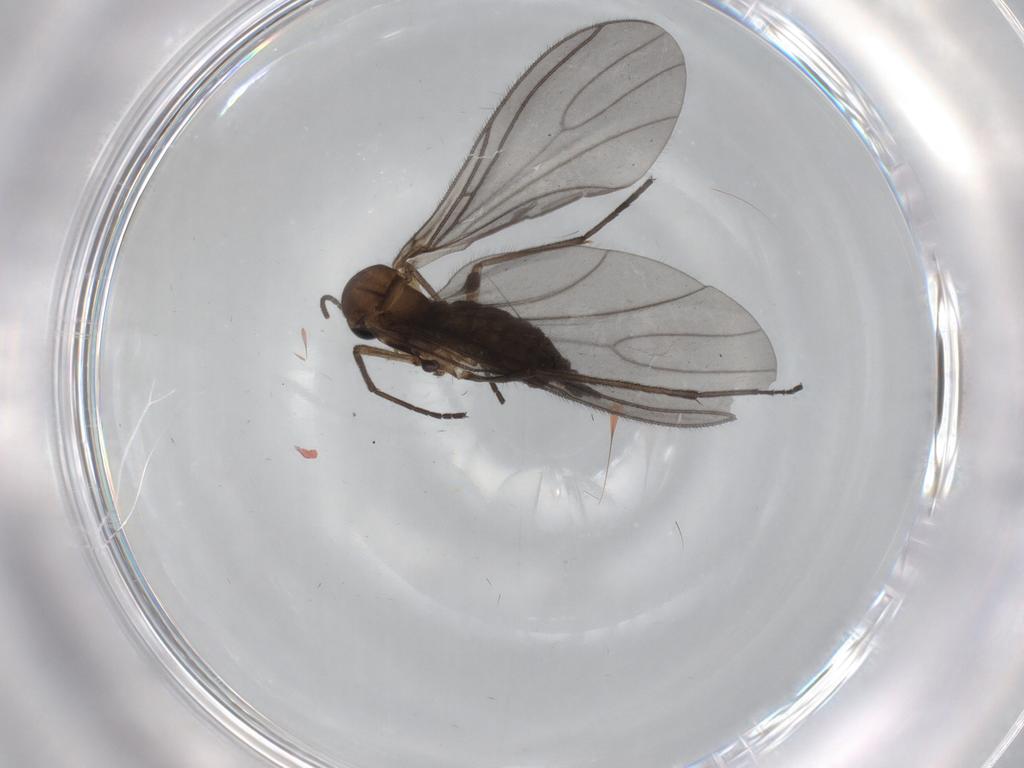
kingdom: Animalia
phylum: Arthropoda
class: Insecta
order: Diptera
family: Sciaridae
